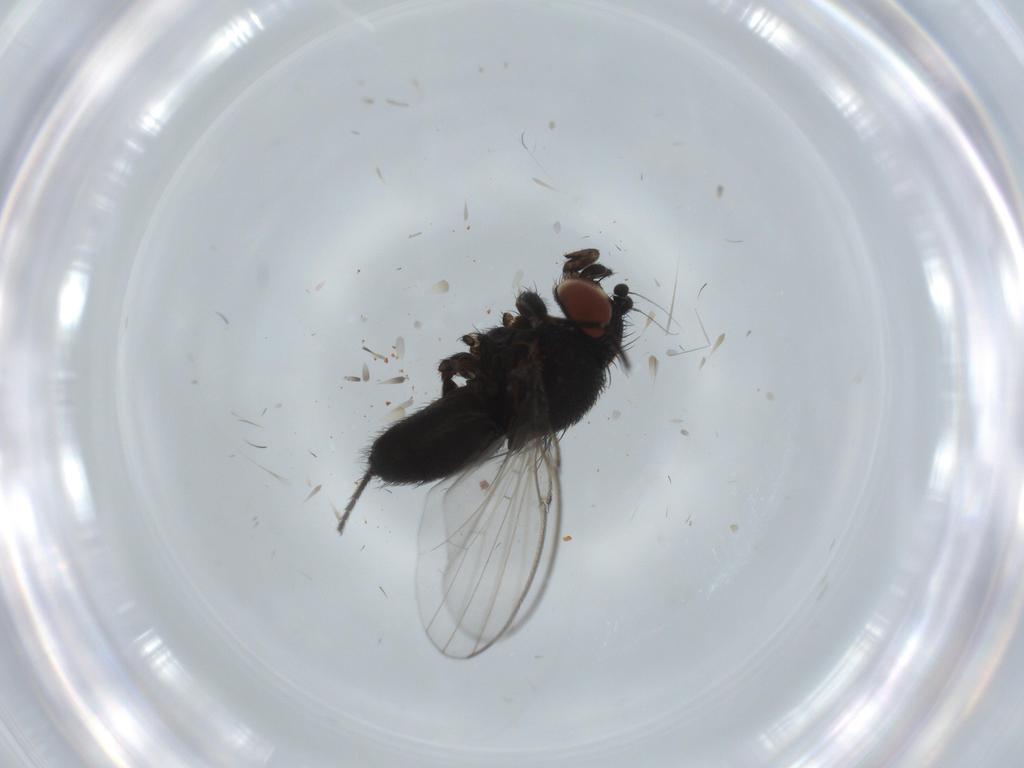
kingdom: Animalia
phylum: Arthropoda
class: Insecta
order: Diptera
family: Milichiidae
